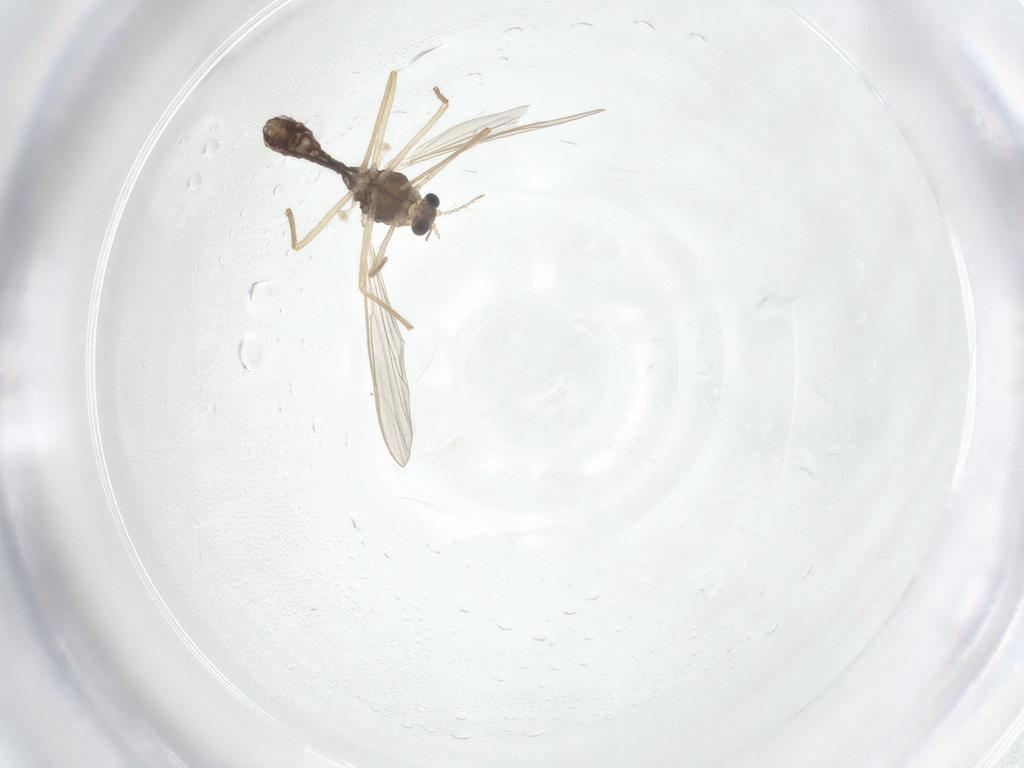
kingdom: Animalia
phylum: Arthropoda
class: Insecta
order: Diptera
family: Chironomidae
